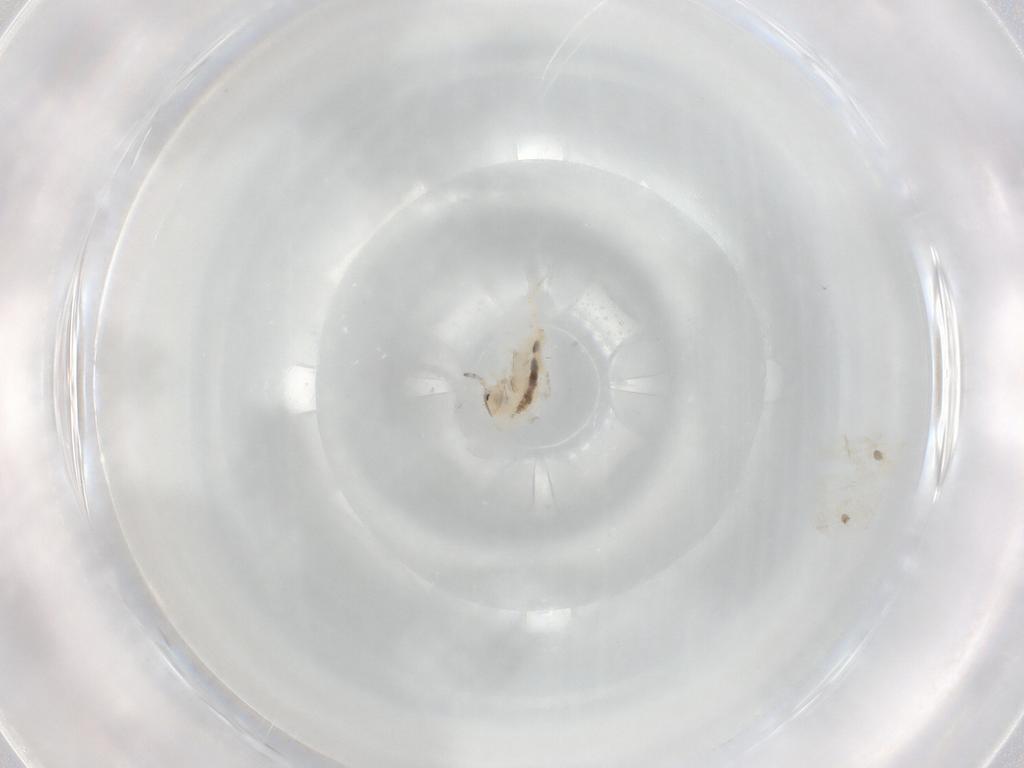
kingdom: Animalia
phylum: Arthropoda
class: Collembola
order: Entomobryomorpha
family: Entomobryidae
